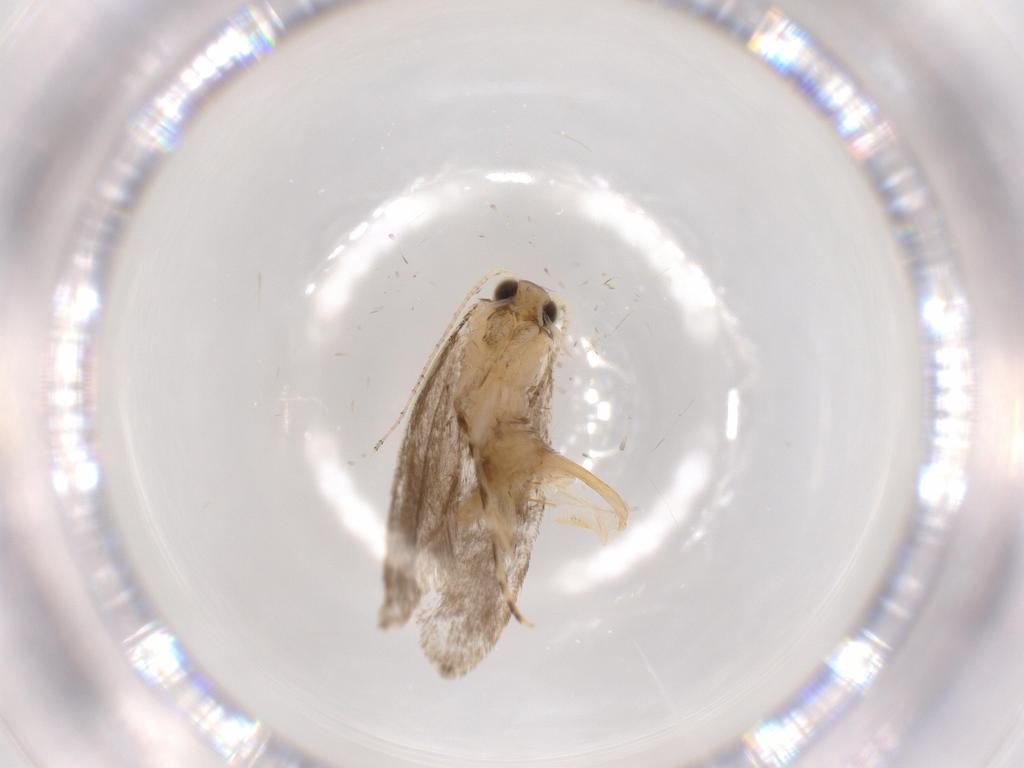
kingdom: Animalia
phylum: Arthropoda
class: Insecta
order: Lepidoptera
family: Tineidae
